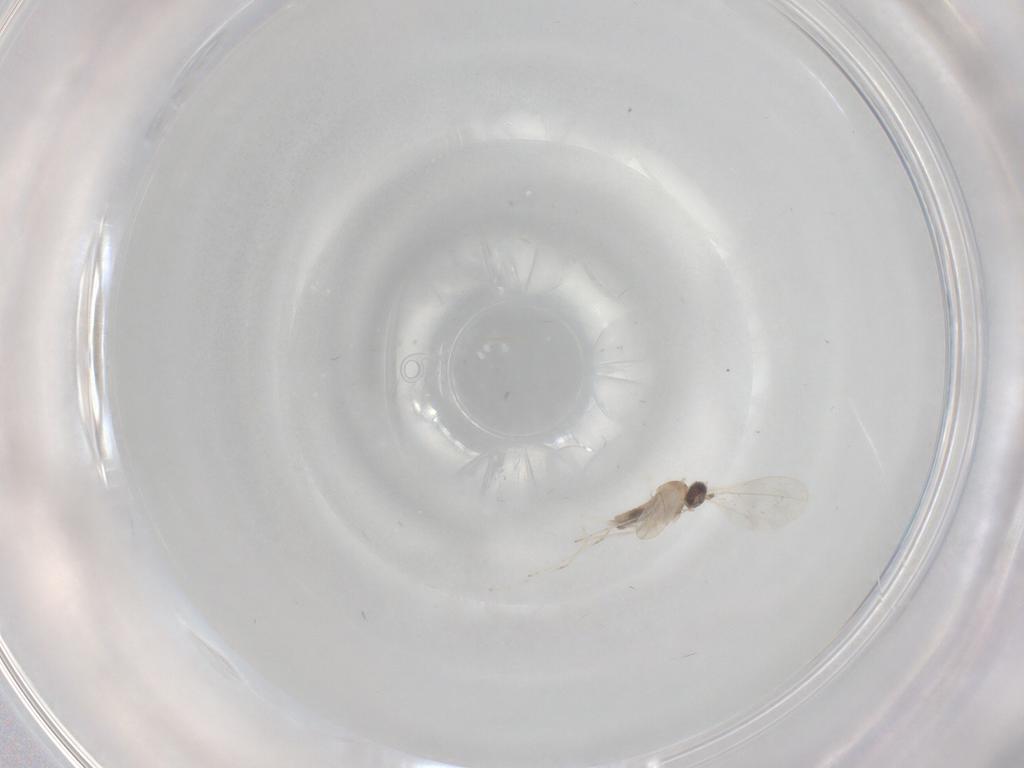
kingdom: Animalia
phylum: Arthropoda
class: Insecta
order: Diptera
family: Cecidomyiidae
